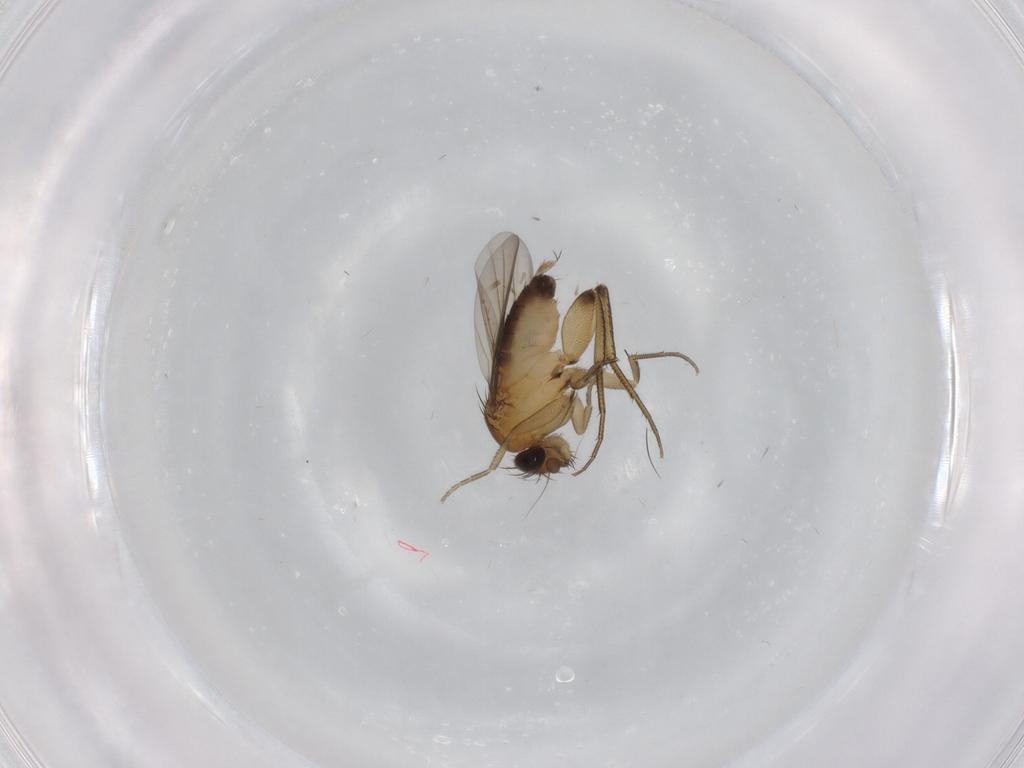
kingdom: Animalia
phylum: Arthropoda
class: Insecta
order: Diptera
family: Phoridae
